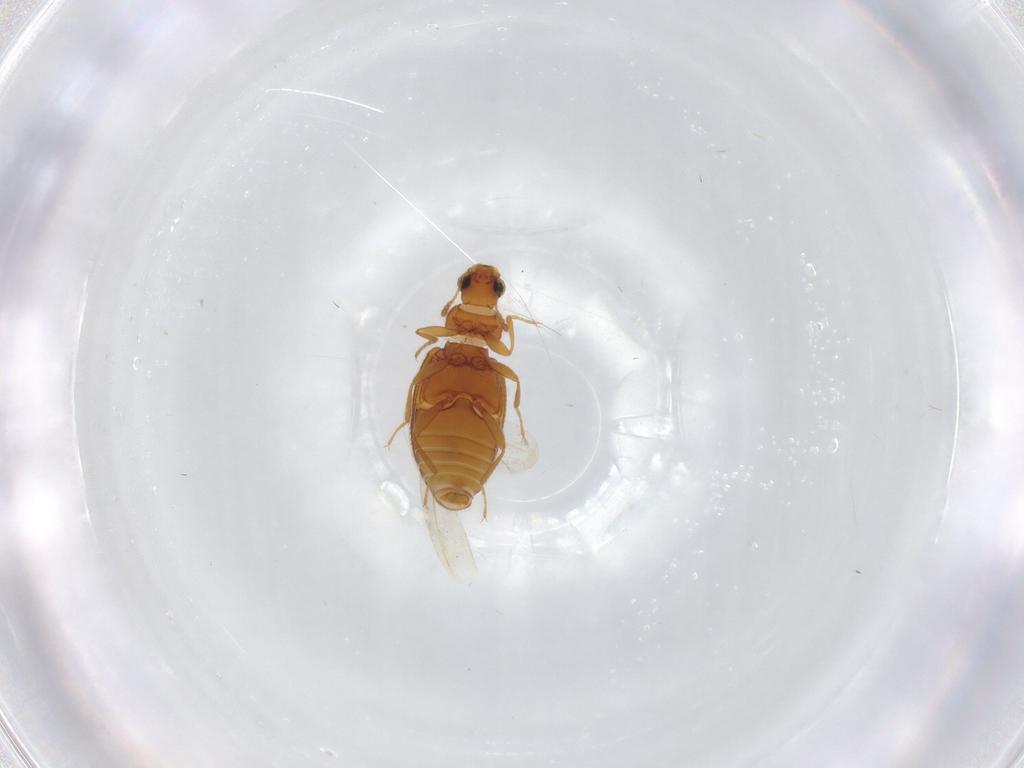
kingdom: Animalia
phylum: Arthropoda
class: Insecta
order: Coleoptera
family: Latridiidae
